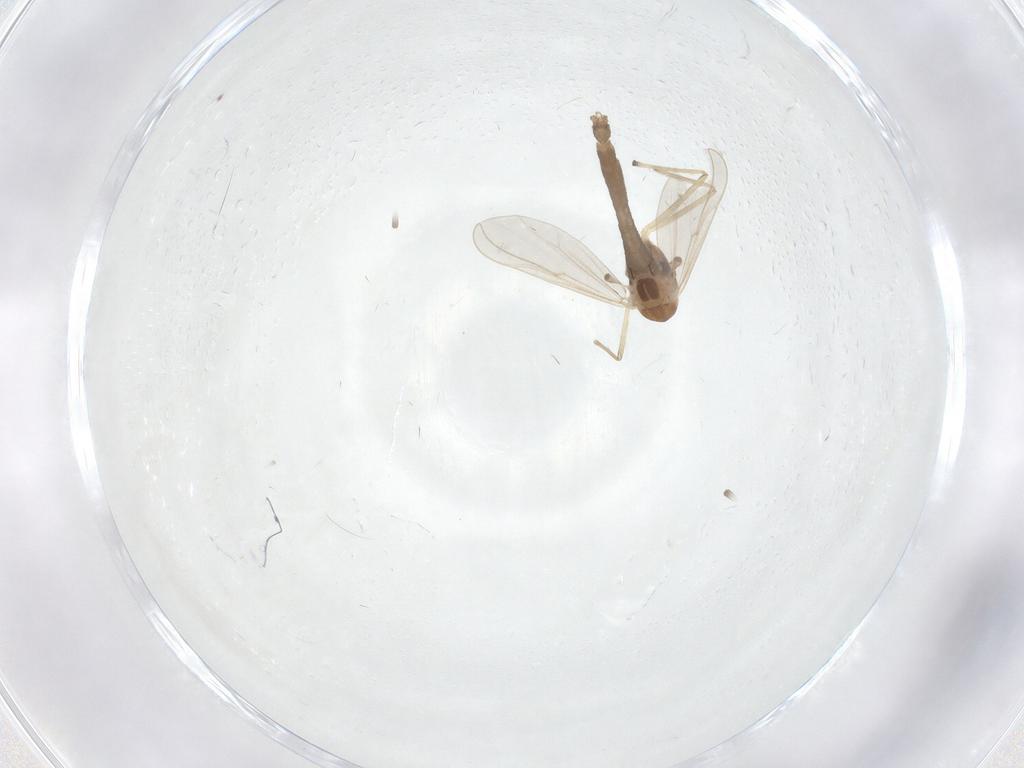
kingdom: Animalia
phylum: Arthropoda
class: Insecta
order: Diptera
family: Chironomidae
